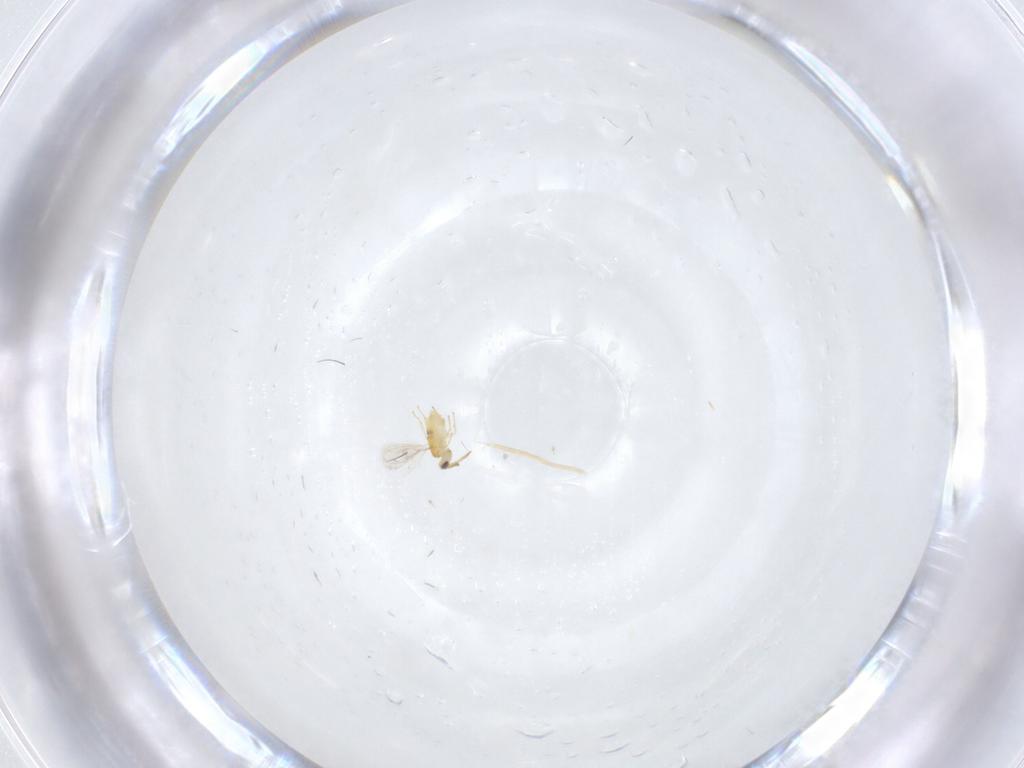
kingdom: Animalia
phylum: Arthropoda
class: Insecta
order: Hymenoptera
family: Aphelinidae
